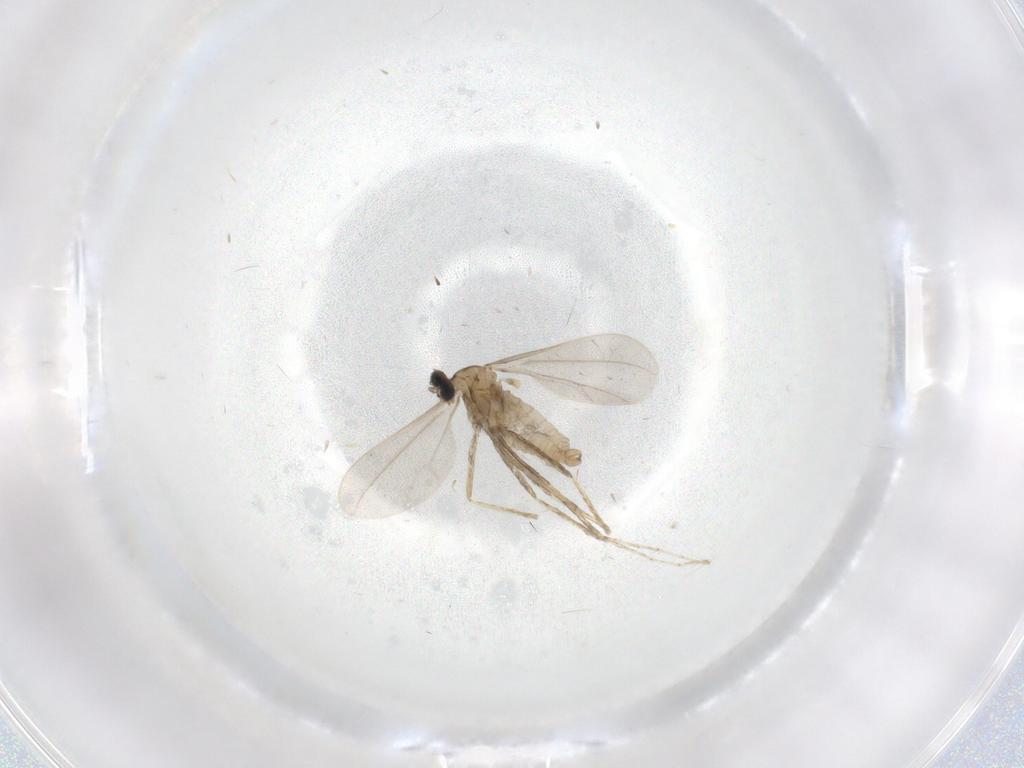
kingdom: Animalia
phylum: Arthropoda
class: Insecta
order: Diptera
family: Cecidomyiidae
